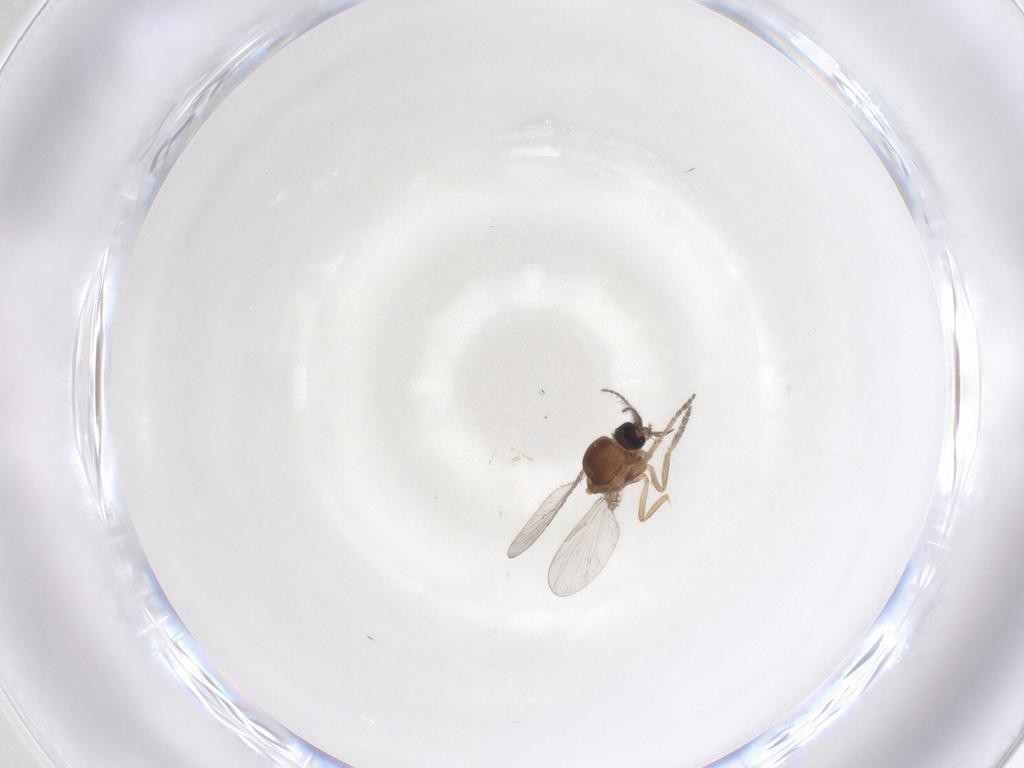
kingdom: Animalia
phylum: Arthropoda
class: Insecta
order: Diptera
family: Ceratopogonidae
